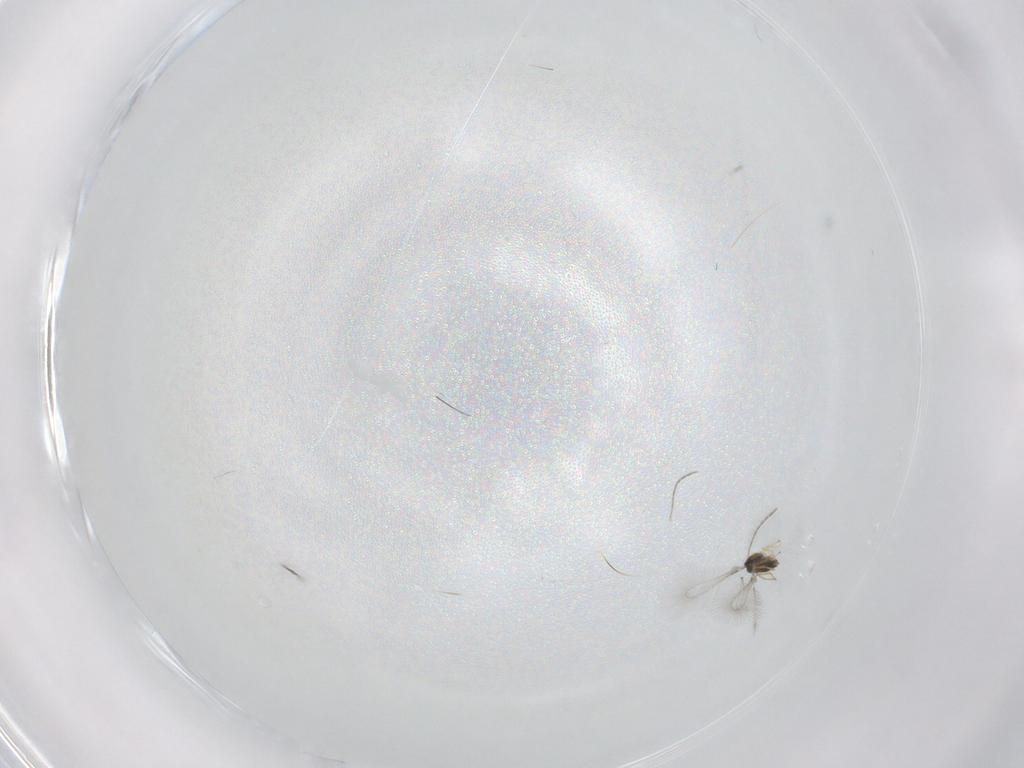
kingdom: Animalia
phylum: Arthropoda
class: Insecta
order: Hymenoptera
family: Mymaridae
